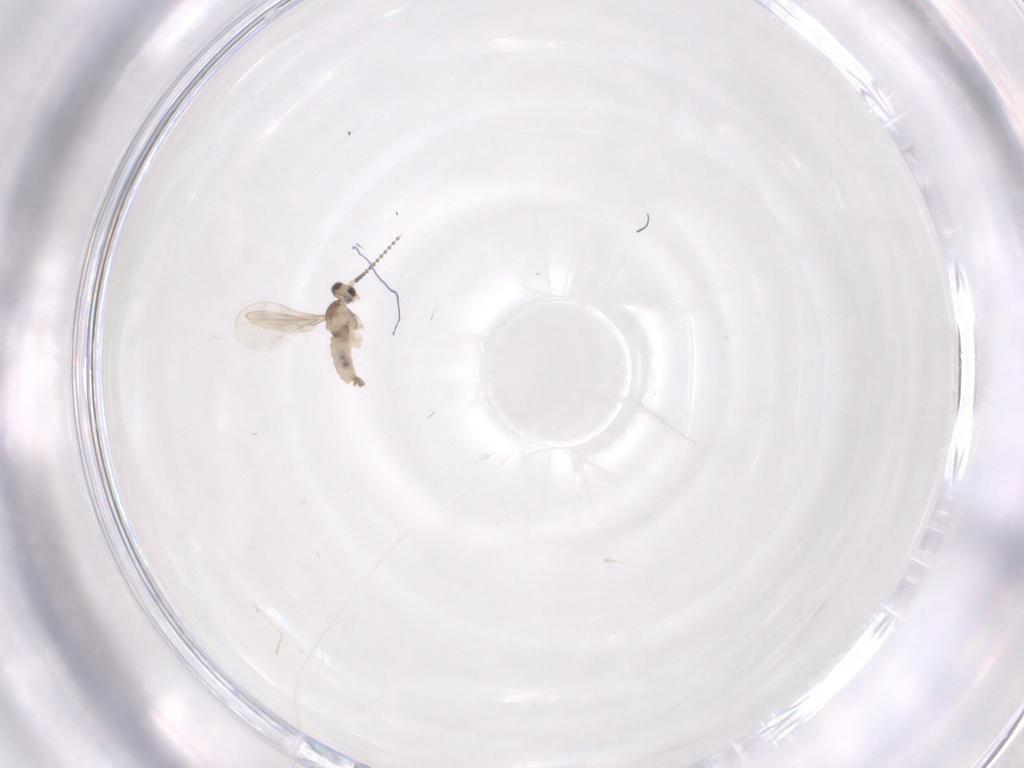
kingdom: Animalia
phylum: Arthropoda
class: Insecta
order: Diptera
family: Cecidomyiidae
